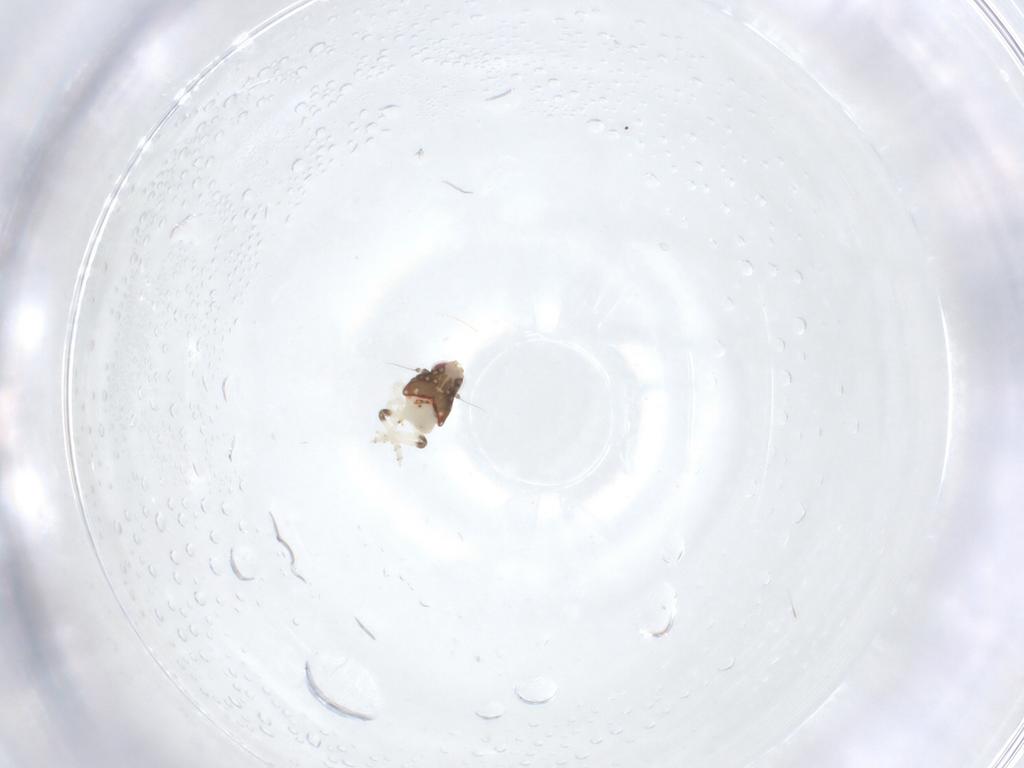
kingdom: Animalia
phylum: Arthropoda
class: Insecta
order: Hemiptera
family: Nogodinidae
